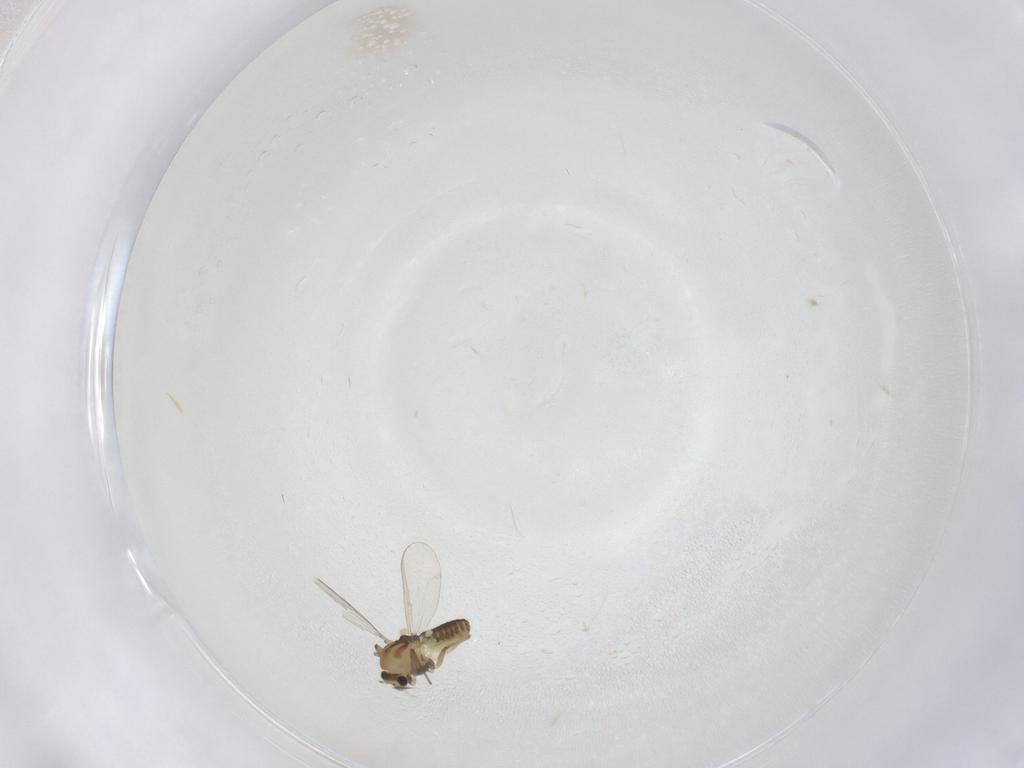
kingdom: Animalia
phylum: Arthropoda
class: Insecta
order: Diptera
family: Chironomidae
